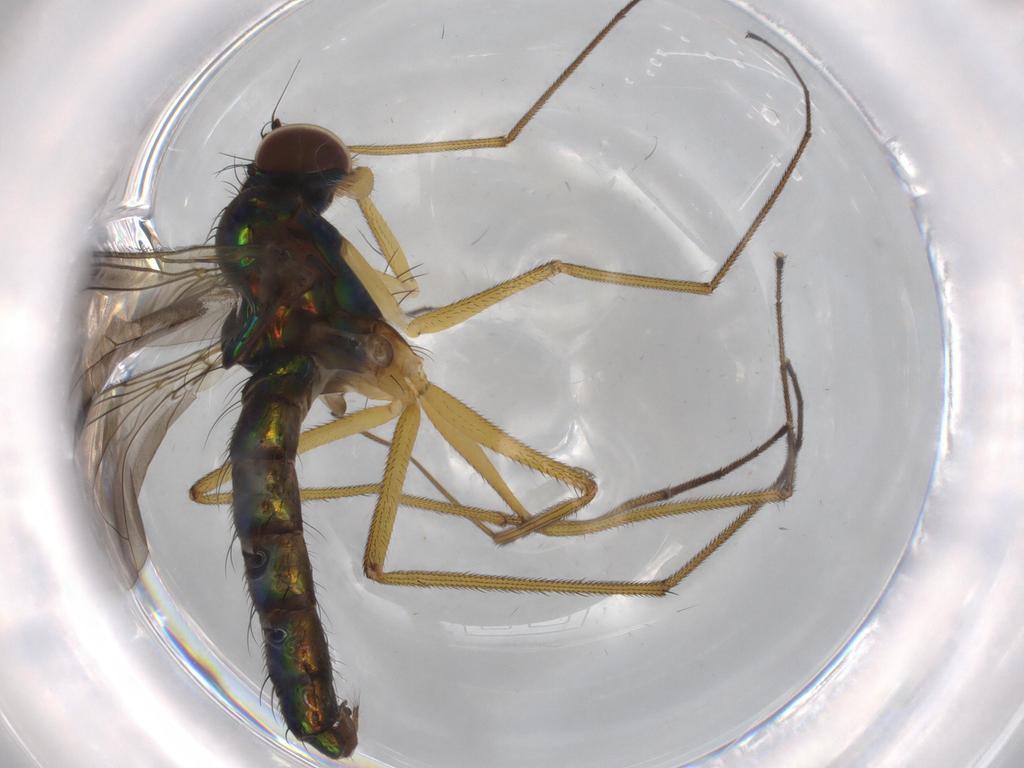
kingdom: Animalia
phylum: Arthropoda
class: Insecta
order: Diptera
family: Dolichopodidae
